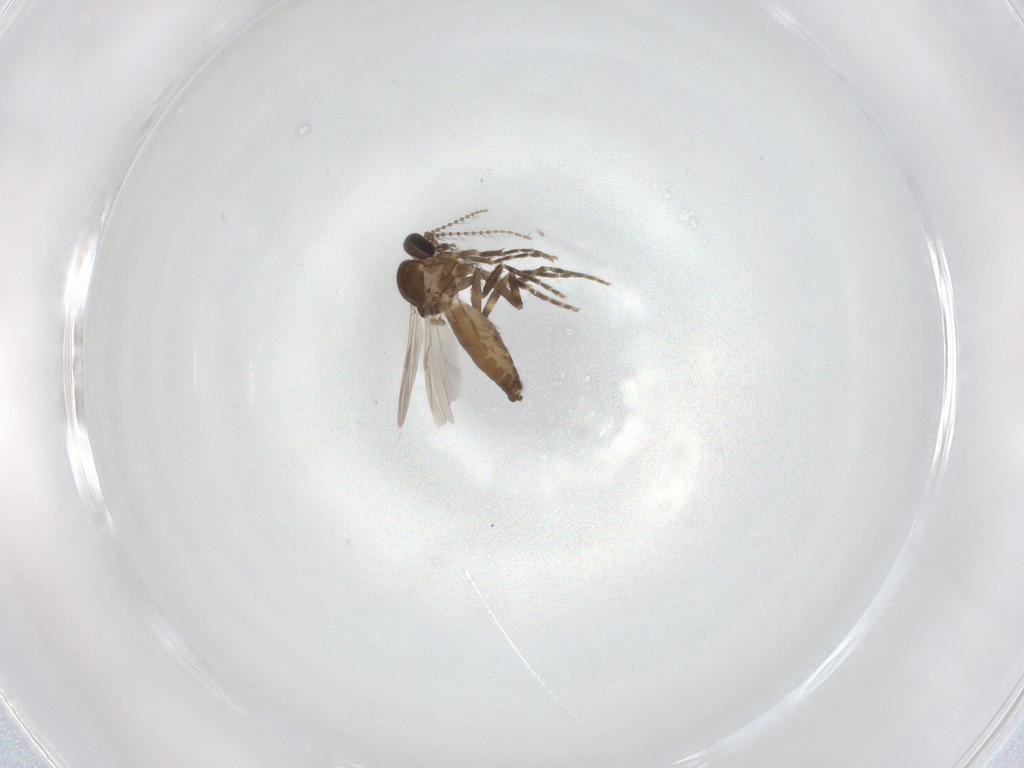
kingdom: Animalia
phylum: Arthropoda
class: Insecta
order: Diptera
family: Ceratopogonidae
